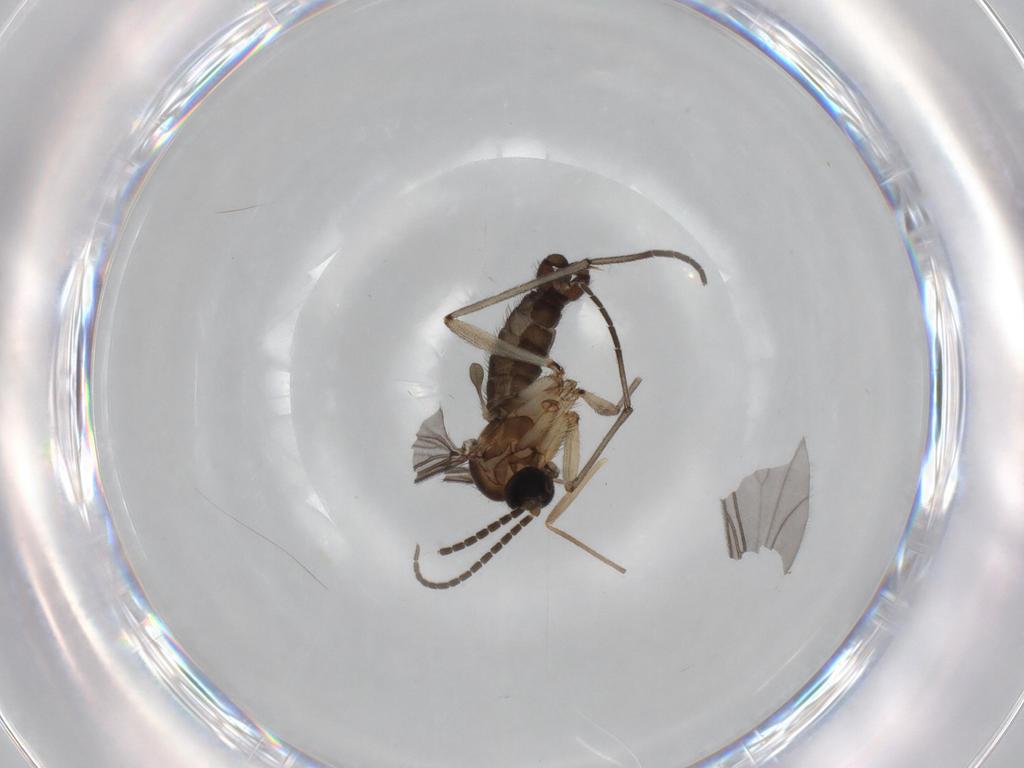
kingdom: Animalia
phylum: Arthropoda
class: Insecta
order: Diptera
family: Sciaridae
